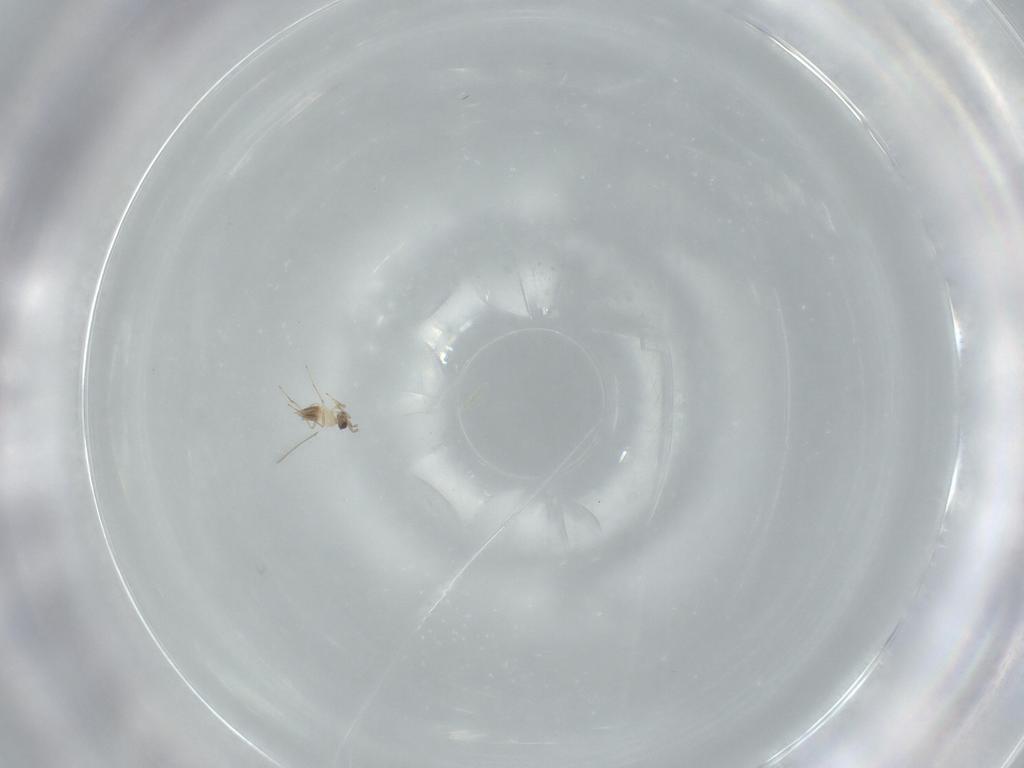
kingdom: Animalia
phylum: Arthropoda
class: Insecta
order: Hymenoptera
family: Mymaridae
